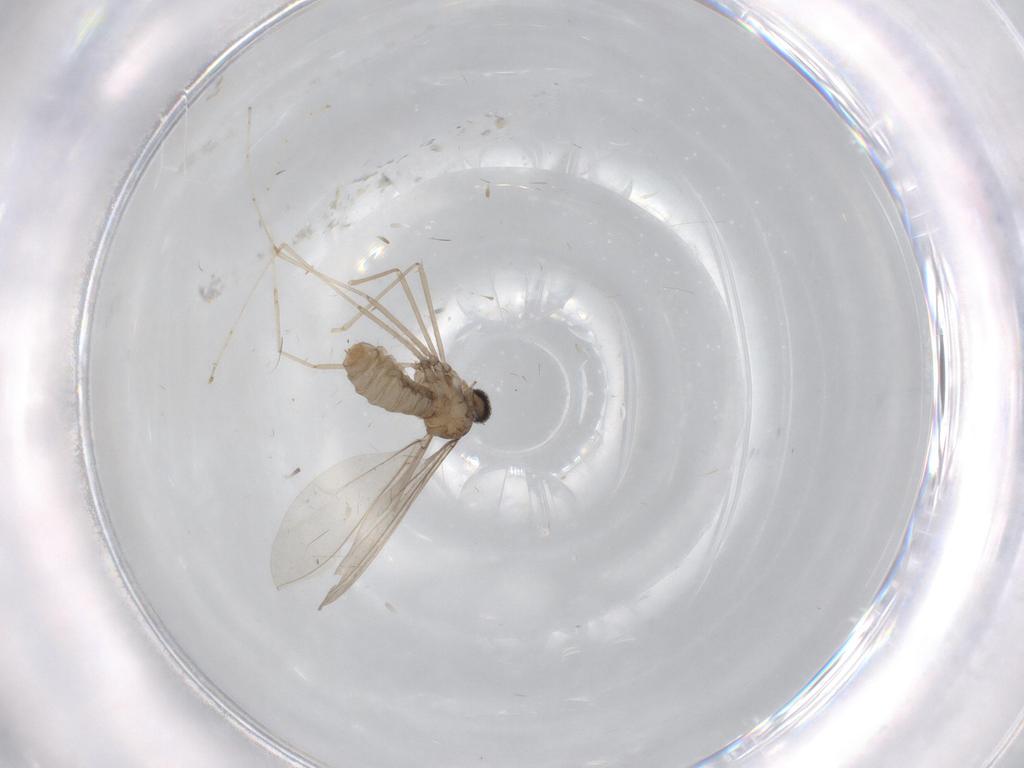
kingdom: Animalia
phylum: Arthropoda
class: Insecta
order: Diptera
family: Cecidomyiidae
